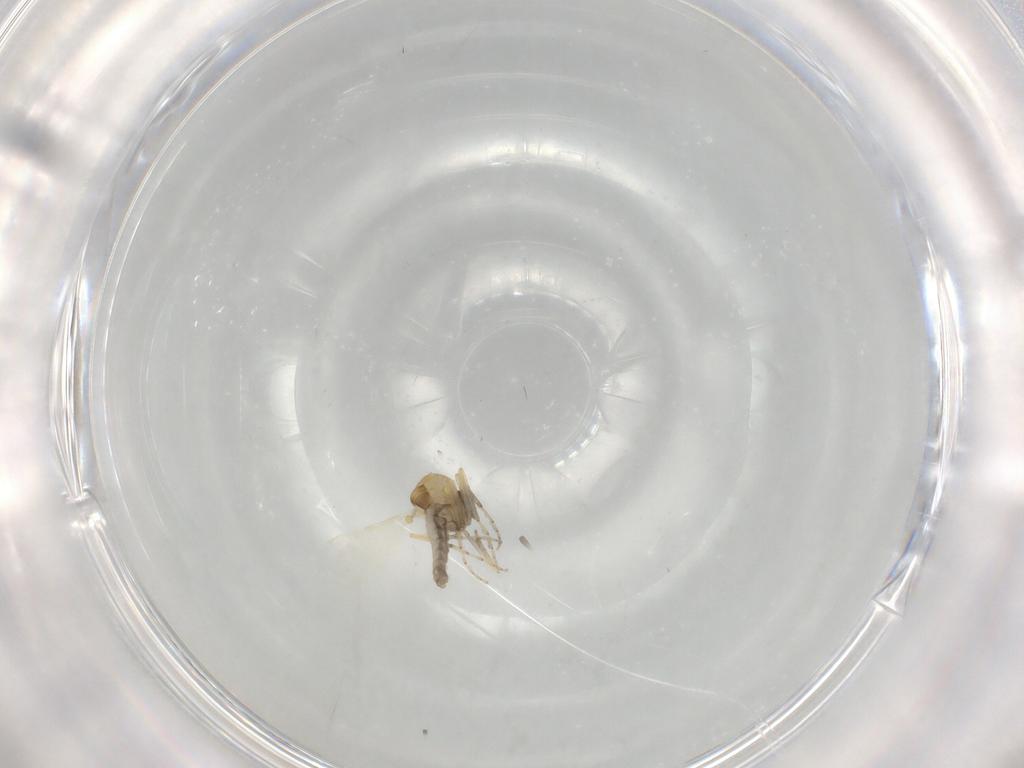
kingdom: Animalia
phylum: Arthropoda
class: Insecta
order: Diptera
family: Ceratopogonidae
